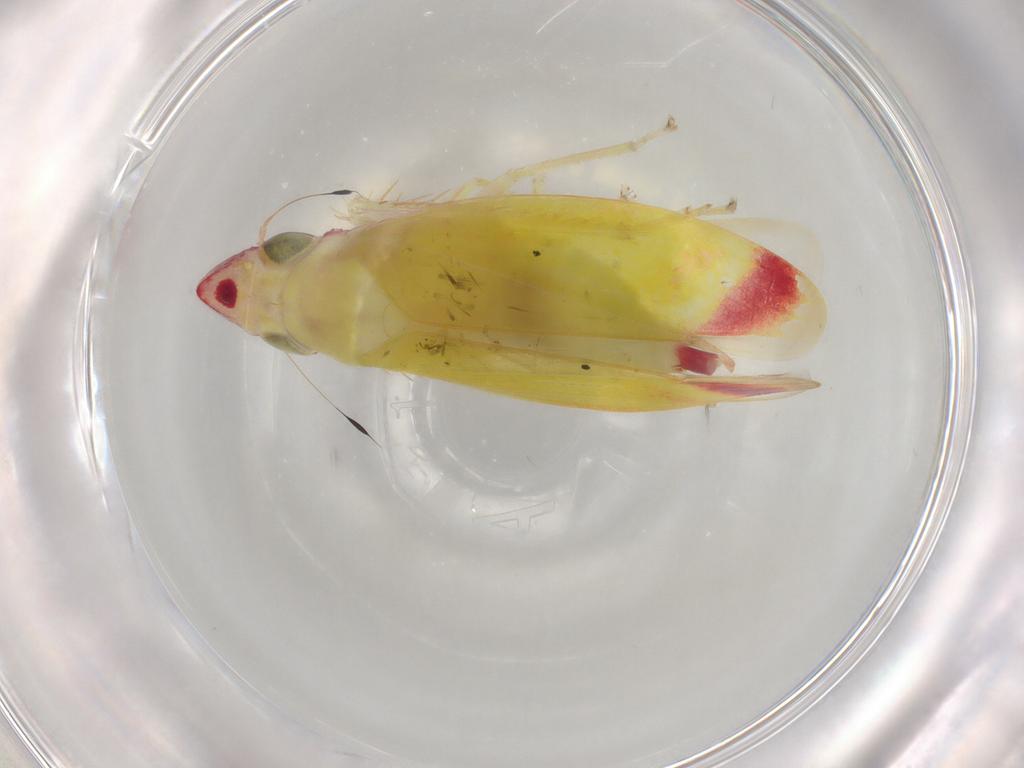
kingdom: Animalia
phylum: Arthropoda
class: Insecta
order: Hemiptera
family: Cicadellidae
